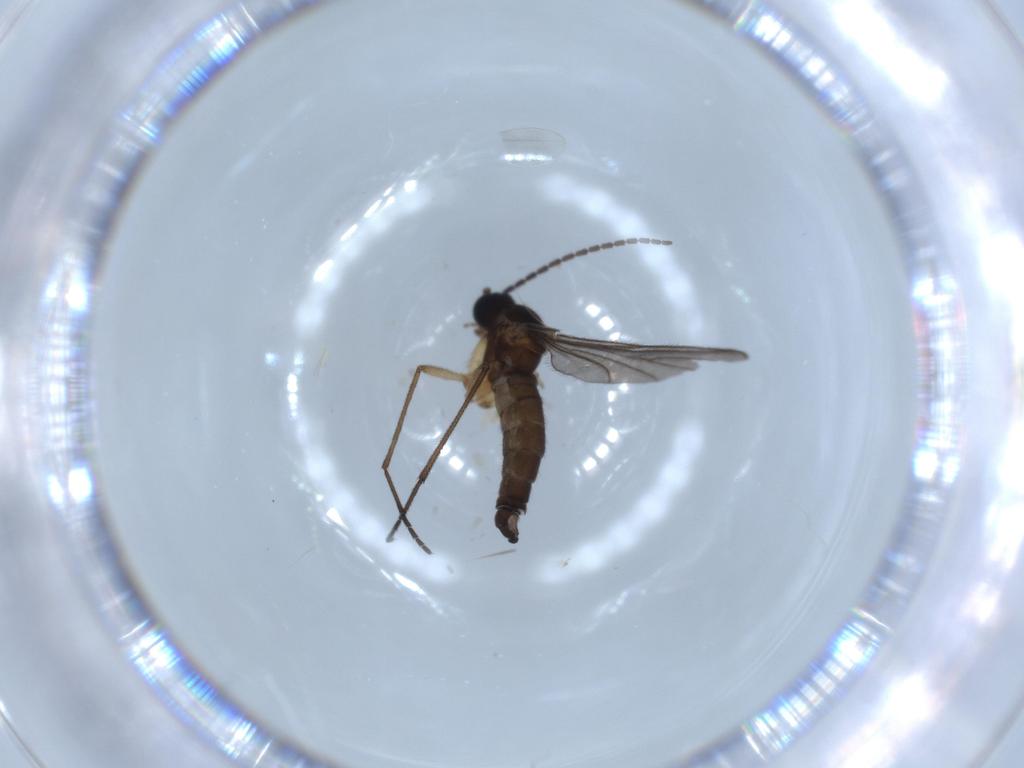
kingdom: Animalia
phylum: Arthropoda
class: Insecta
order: Diptera
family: Sciaridae
